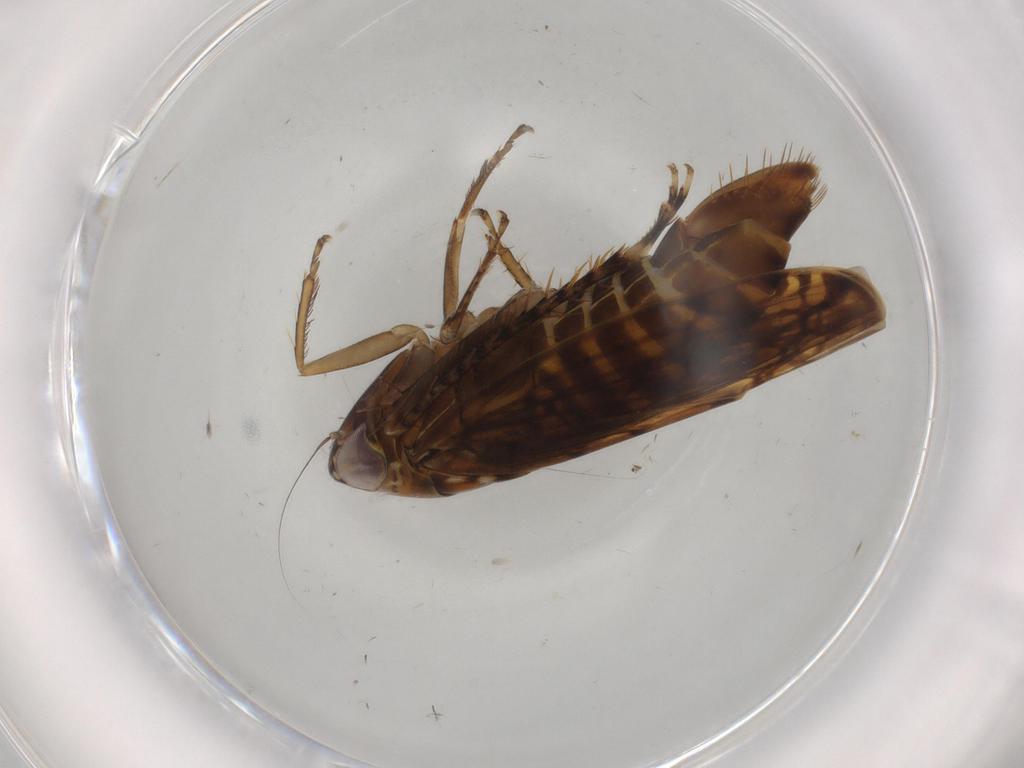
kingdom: Animalia
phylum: Arthropoda
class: Insecta
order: Hemiptera
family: Cicadellidae
